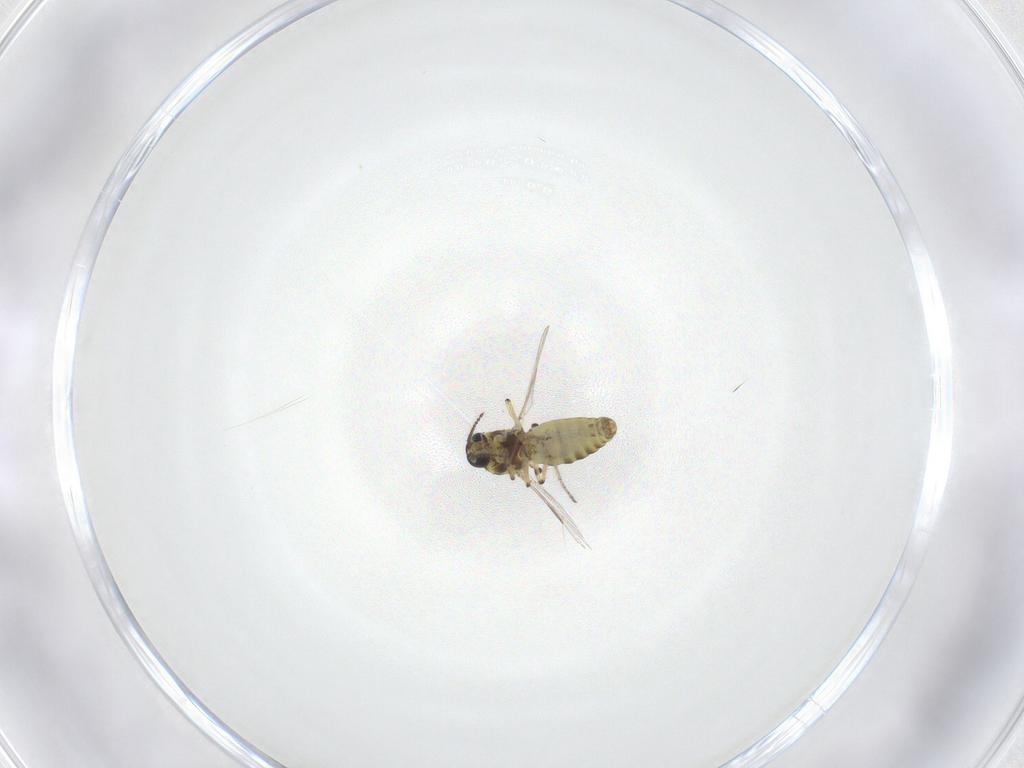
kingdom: Animalia
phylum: Arthropoda
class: Insecta
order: Diptera
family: Ceratopogonidae
